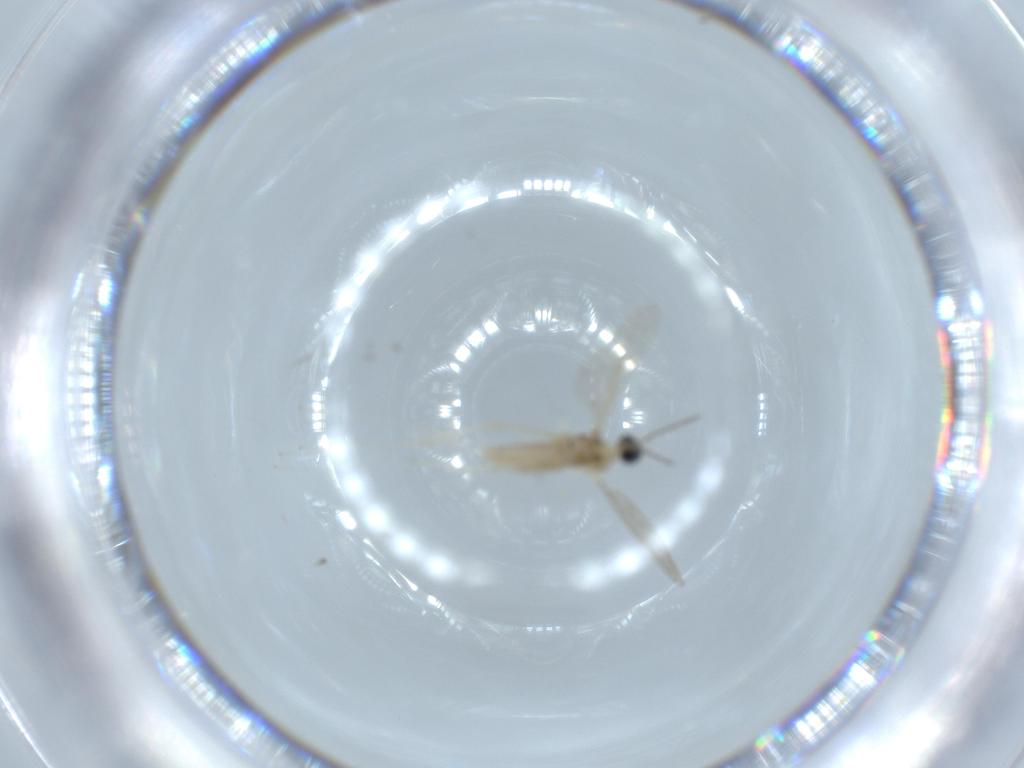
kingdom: Animalia
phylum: Arthropoda
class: Insecta
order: Diptera
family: Cecidomyiidae
